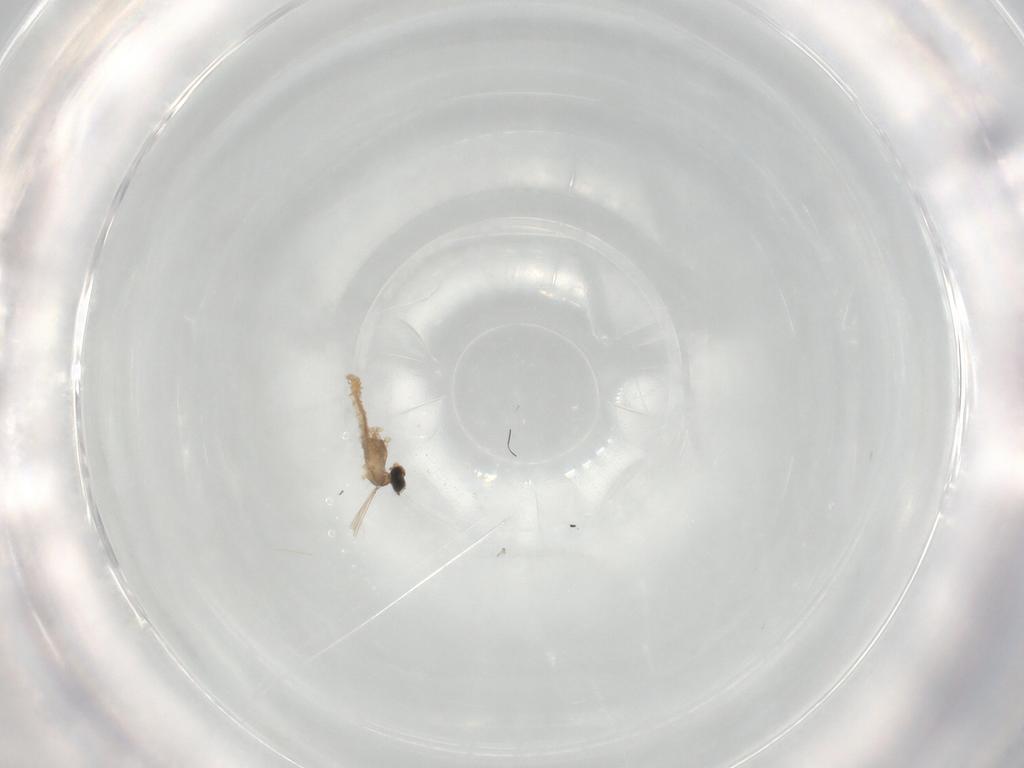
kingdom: Animalia
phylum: Arthropoda
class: Insecta
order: Diptera
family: Cecidomyiidae
